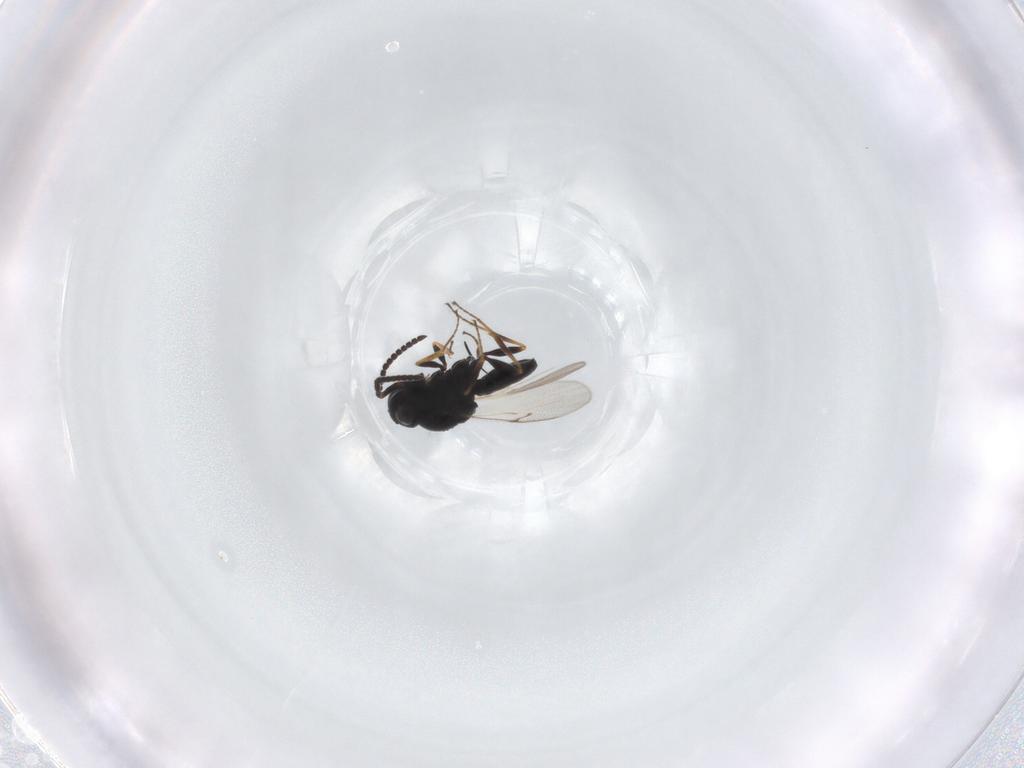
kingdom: Animalia
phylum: Arthropoda
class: Insecta
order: Hymenoptera
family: Scelionidae
